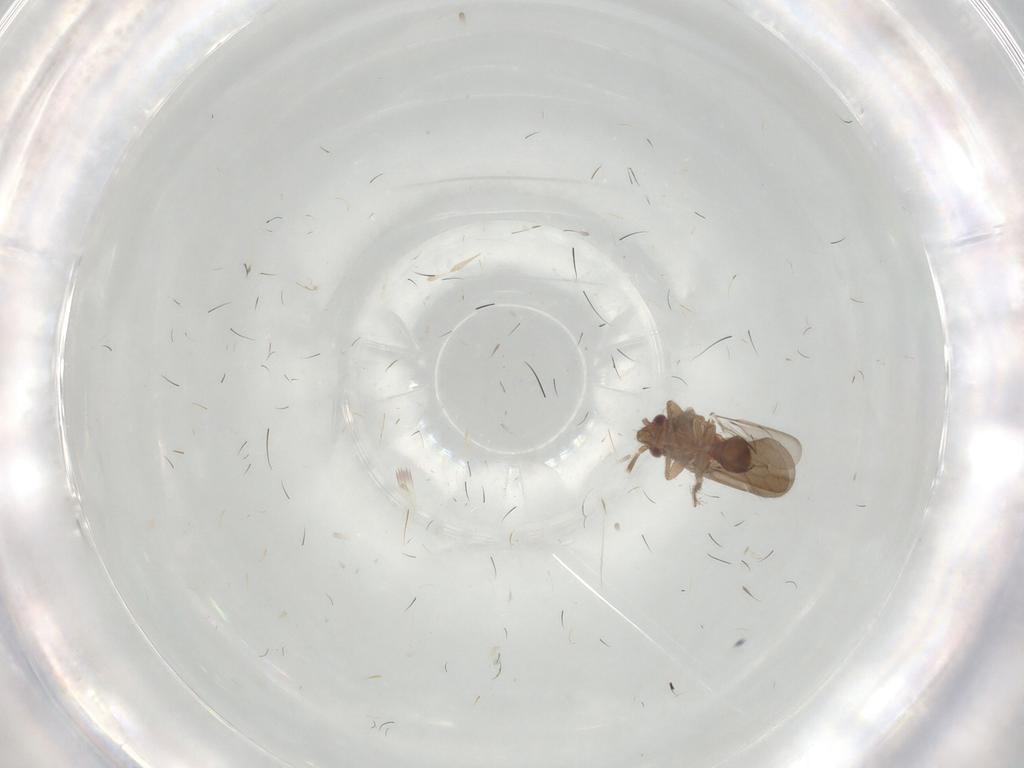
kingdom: Animalia
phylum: Arthropoda
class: Insecta
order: Hemiptera
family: Ceratocombidae
